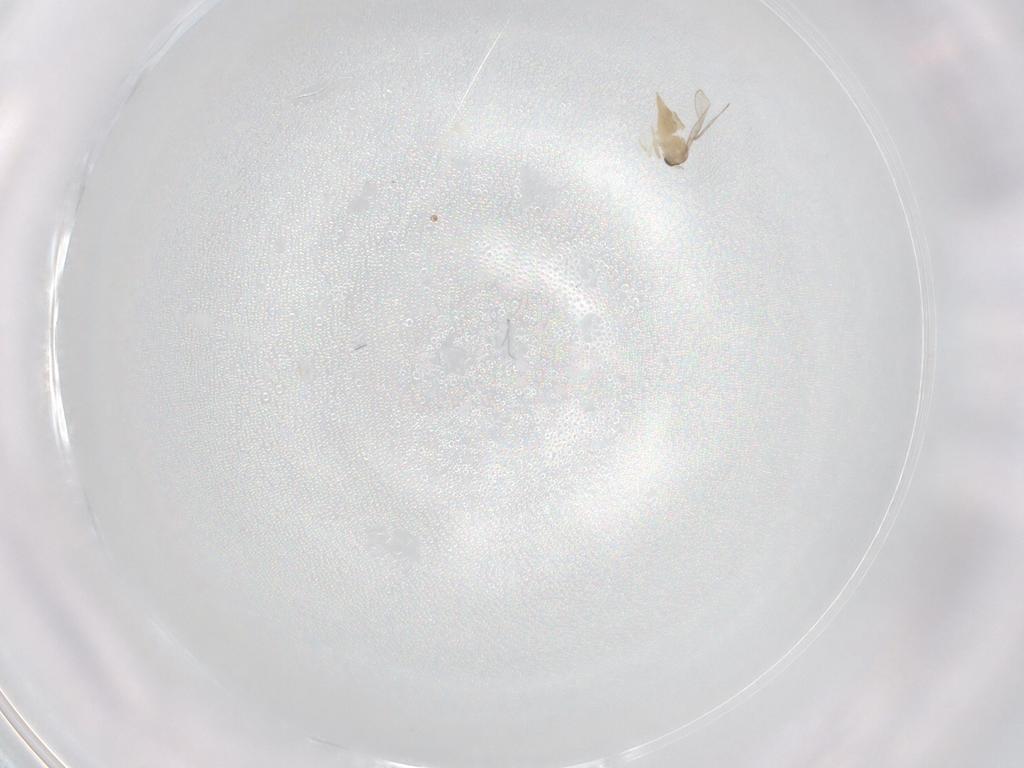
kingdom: Animalia
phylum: Arthropoda
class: Insecta
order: Diptera
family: Cecidomyiidae
